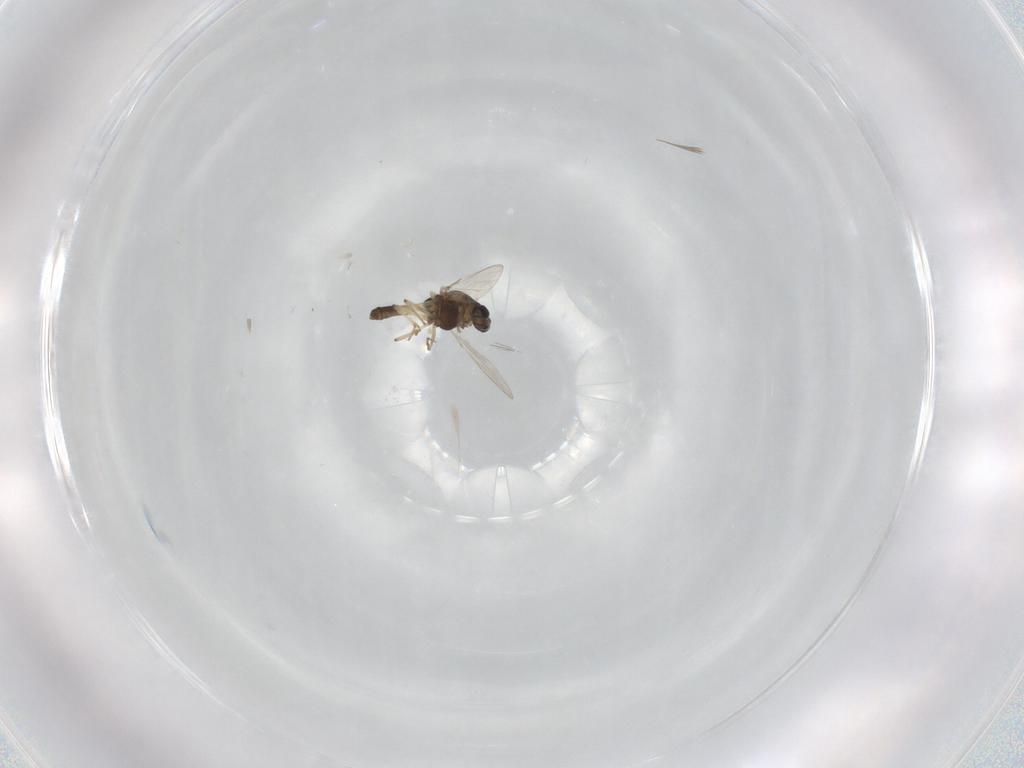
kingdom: Animalia
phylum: Arthropoda
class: Insecta
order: Diptera
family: Chironomidae
